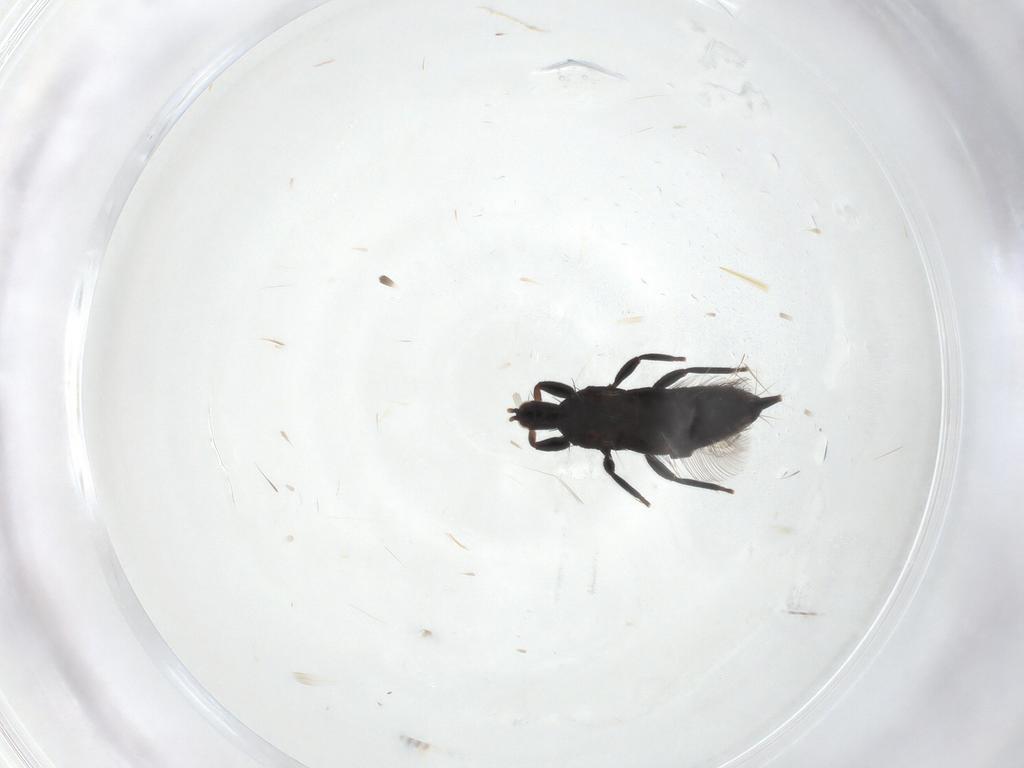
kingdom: Animalia
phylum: Arthropoda
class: Insecta
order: Thysanoptera
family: Phlaeothripidae
